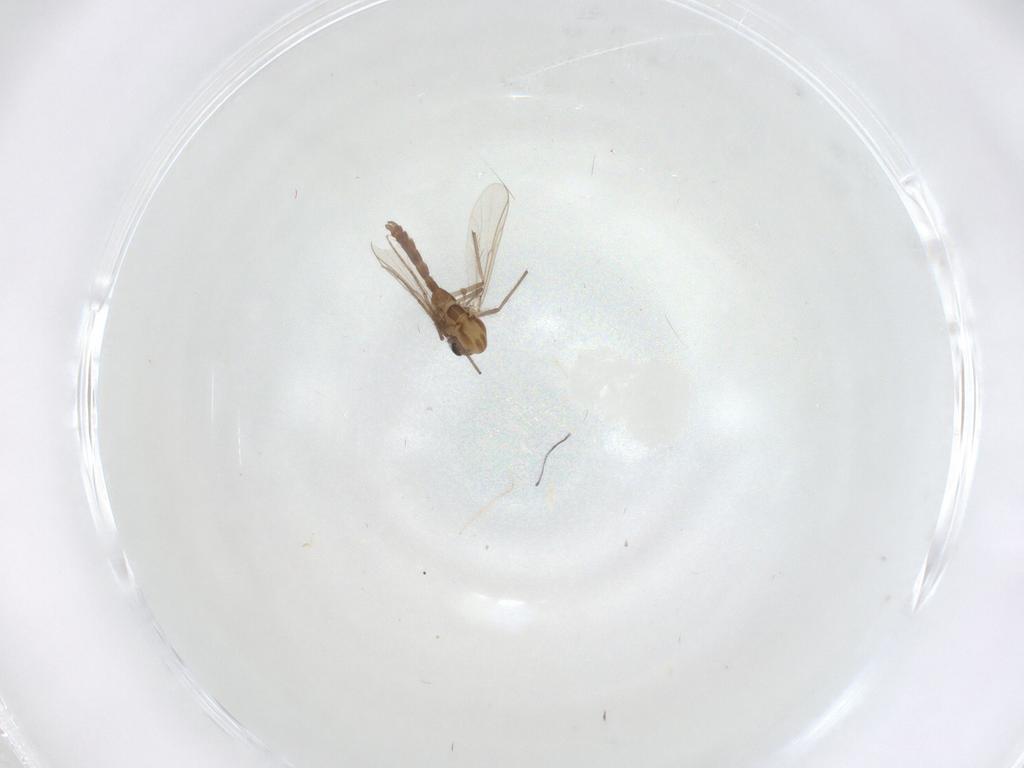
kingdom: Animalia
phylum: Arthropoda
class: Insecta
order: Diptera
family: Chironomidae
